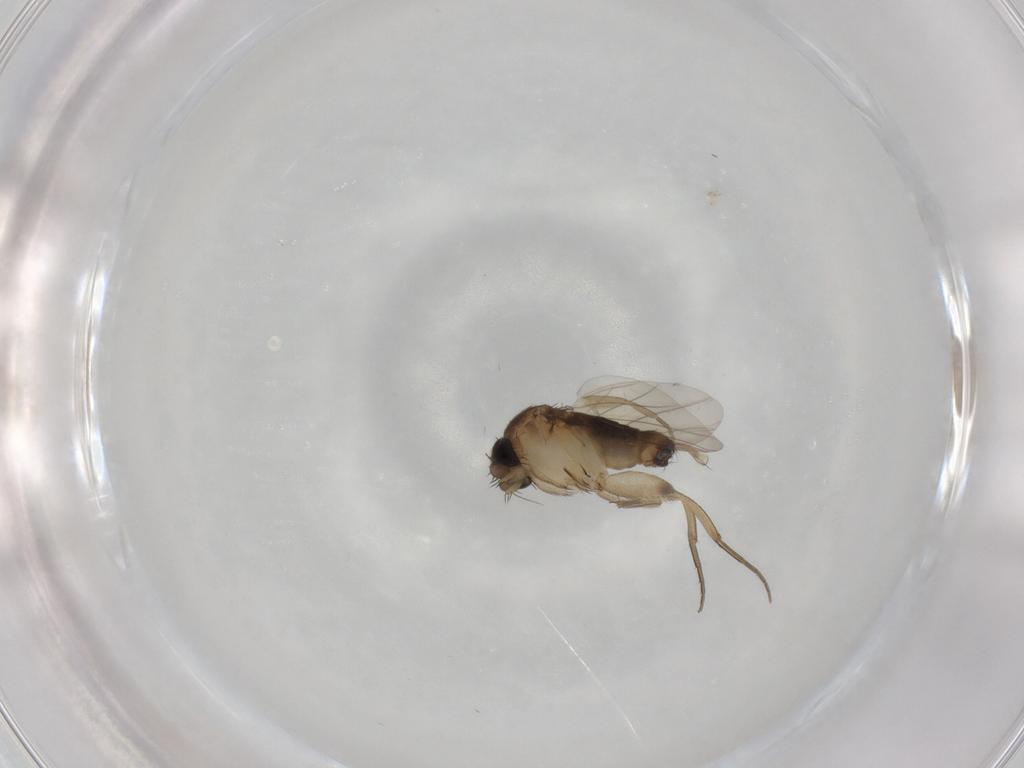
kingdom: Animalia
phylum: Arthropoda
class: Insecta
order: Diptera
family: Phoridae
